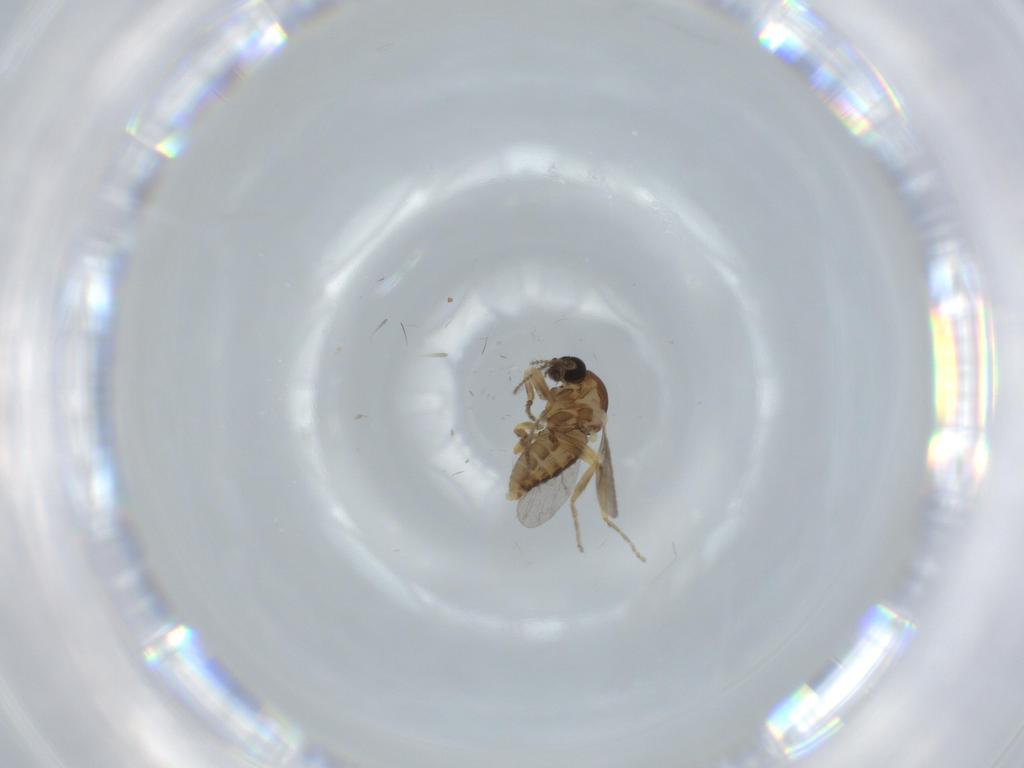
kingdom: Animalia
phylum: Arthropoda
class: Insecta
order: Diptera
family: Ceratopogonidae
